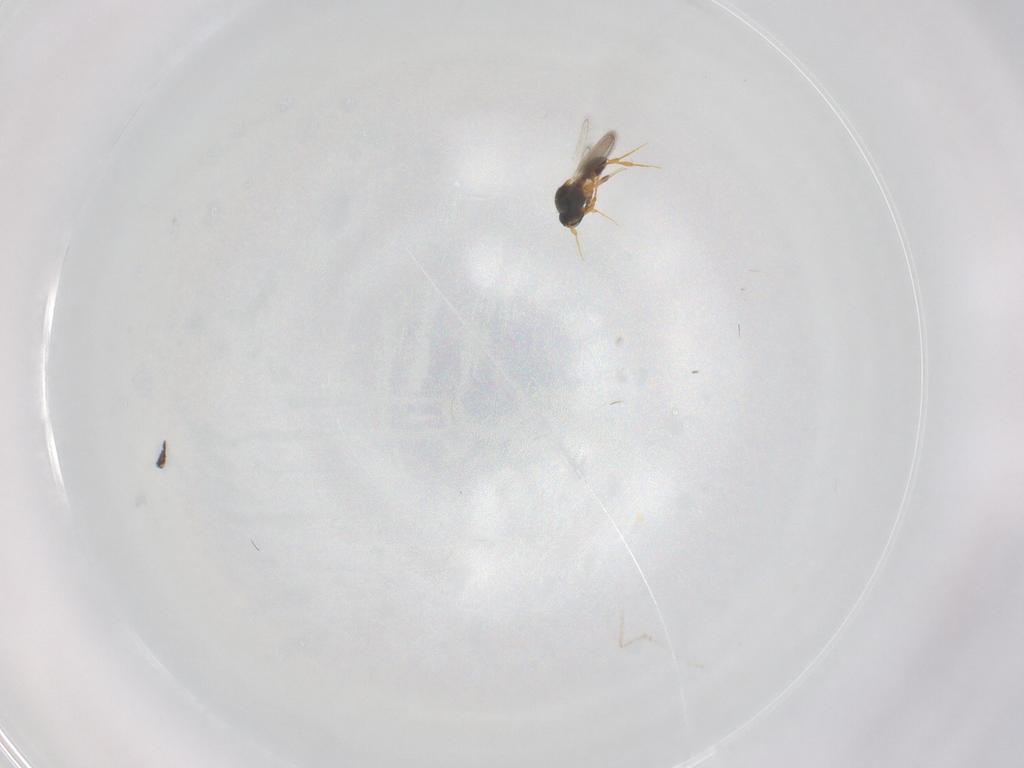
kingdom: Animalia
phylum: Arthropoda
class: Insecta
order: Hymenoptera
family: Platygastridae
